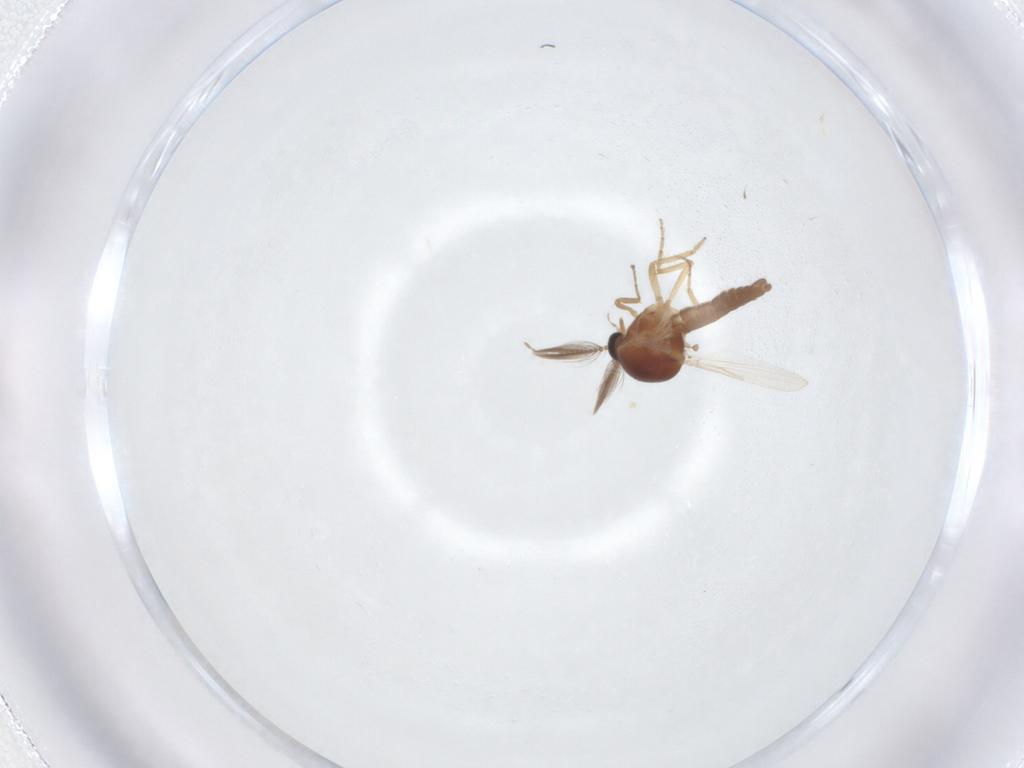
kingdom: Animalia
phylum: Arthropoda
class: Insecta
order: Diptera
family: Ceratopogonidae
